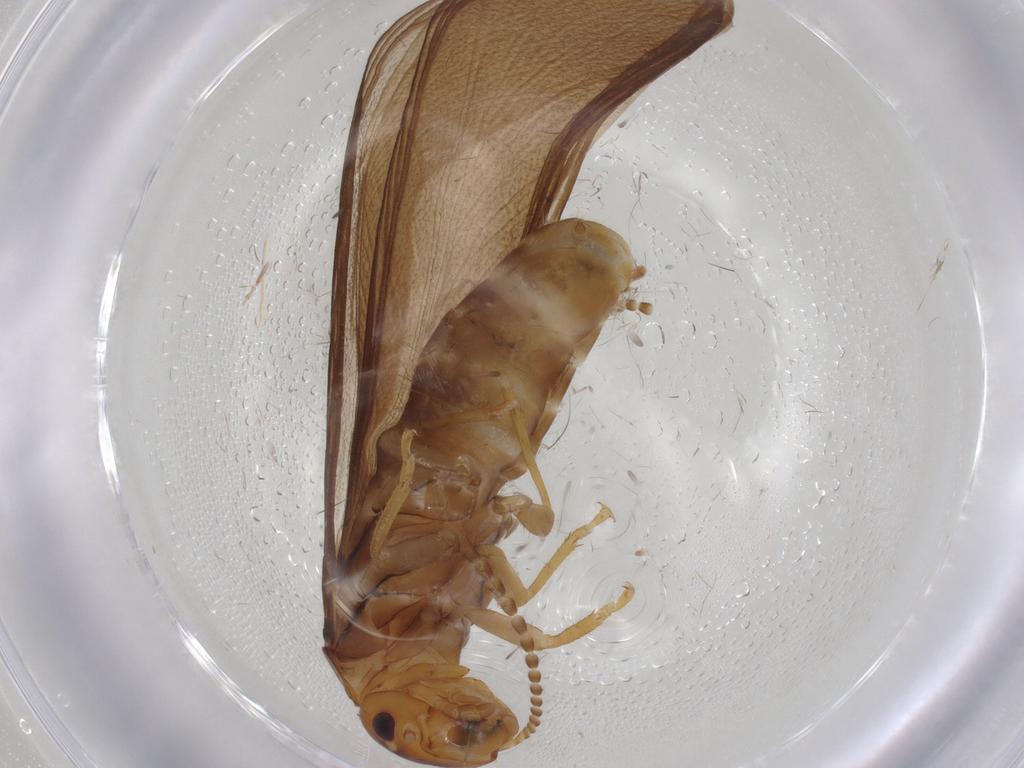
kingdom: Animalia
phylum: Arthropoda
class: Insecta
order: Blattodea
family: Kalotermitidae
